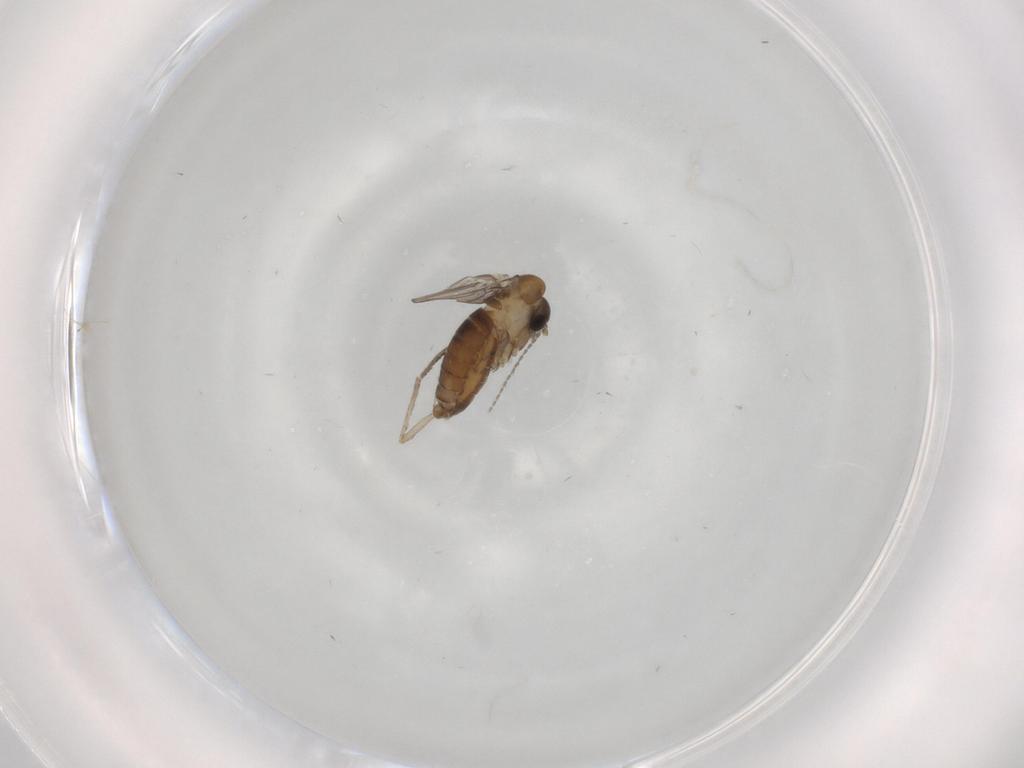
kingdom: Animalia
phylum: Arthropoda
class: Insecta
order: Diptera
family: Psychodidae
